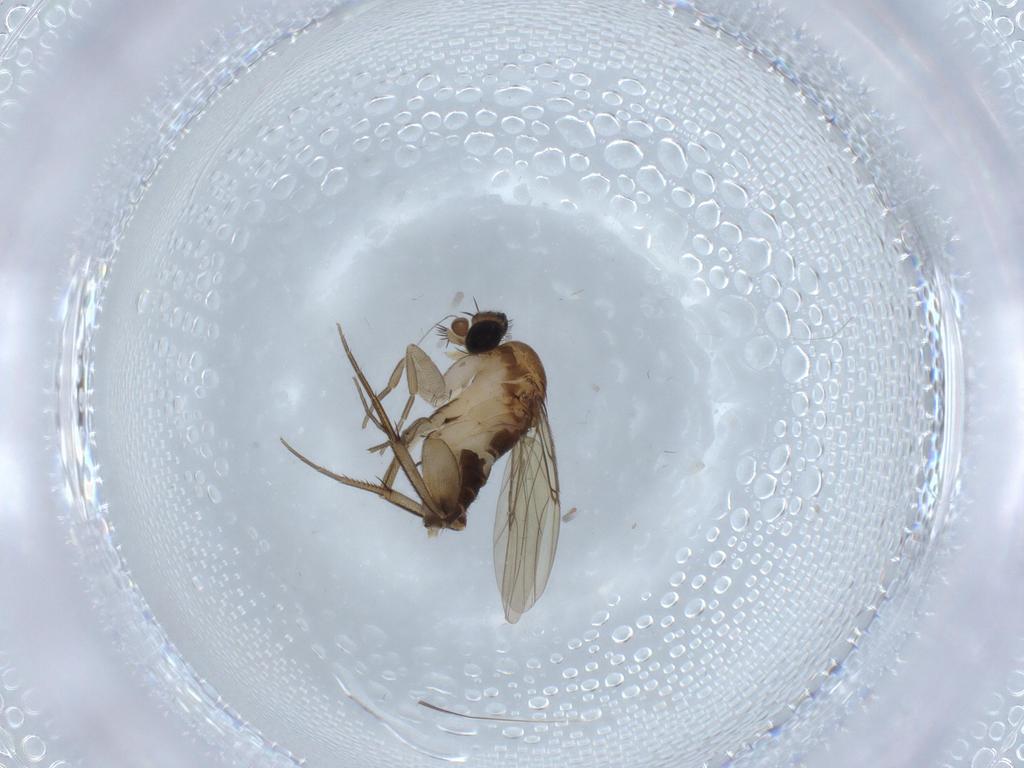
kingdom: Animalia
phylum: Arthropoda
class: Insecta
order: Diptera
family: Phoridae
